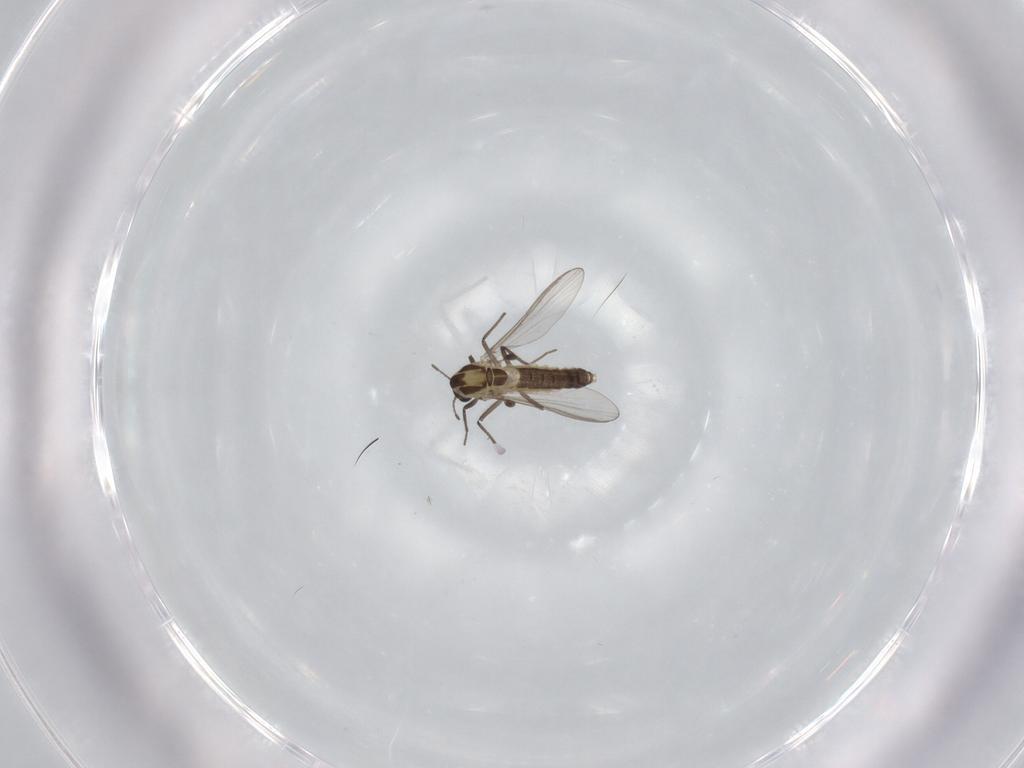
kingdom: Animalia
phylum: Arthropoda
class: Insecta
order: Diptera
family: Chironomidae
